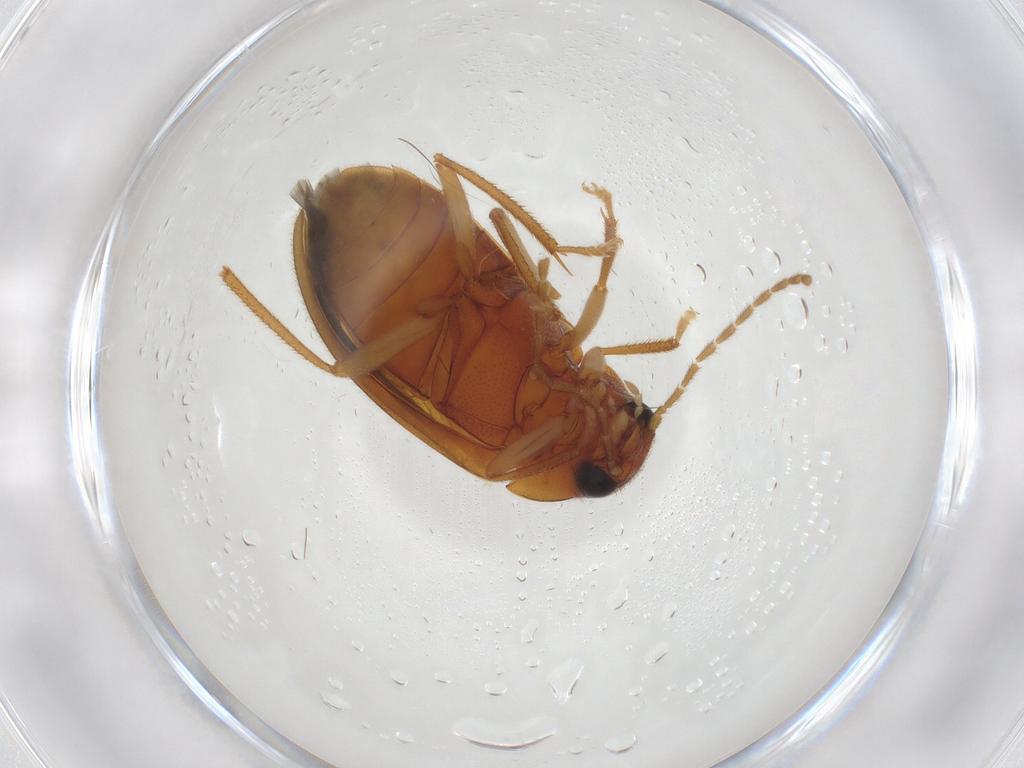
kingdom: Animalia
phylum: Arthropoda
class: Insecta
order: Coleoptera
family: Ptilodactylidae
